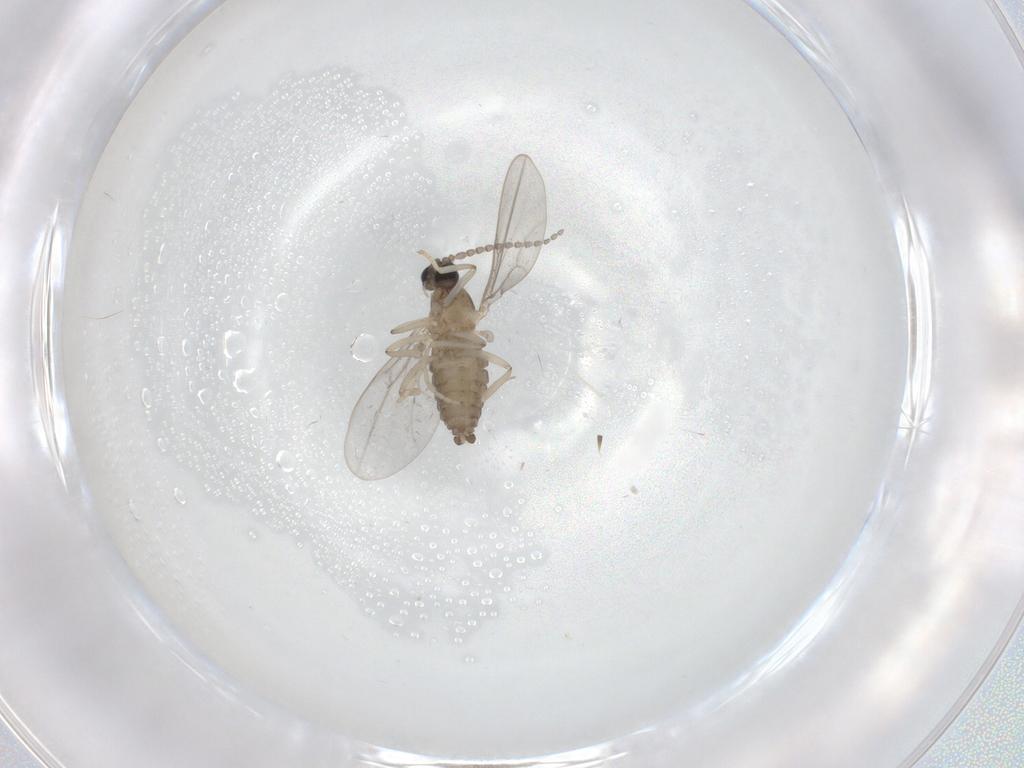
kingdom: Animalia
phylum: Arthropoda
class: Insecta
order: Diptera
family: Cecidomyiidae
